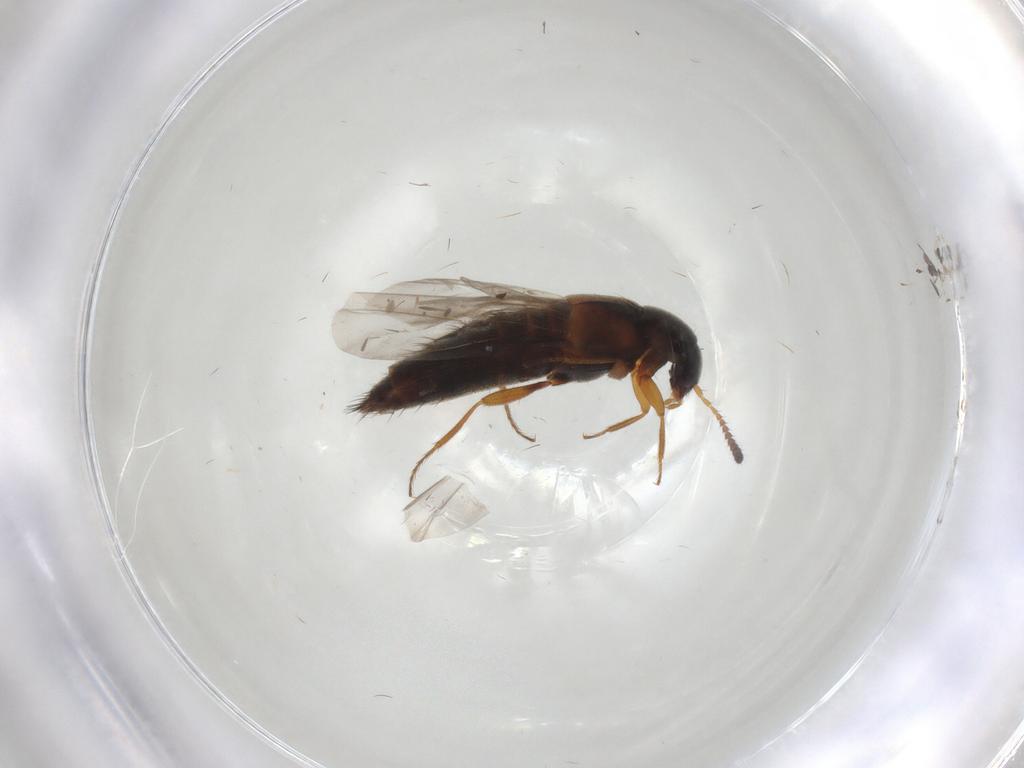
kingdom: Animalia
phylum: Arthropoda
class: Insecta
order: Coleoptera
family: Staphylinidae
